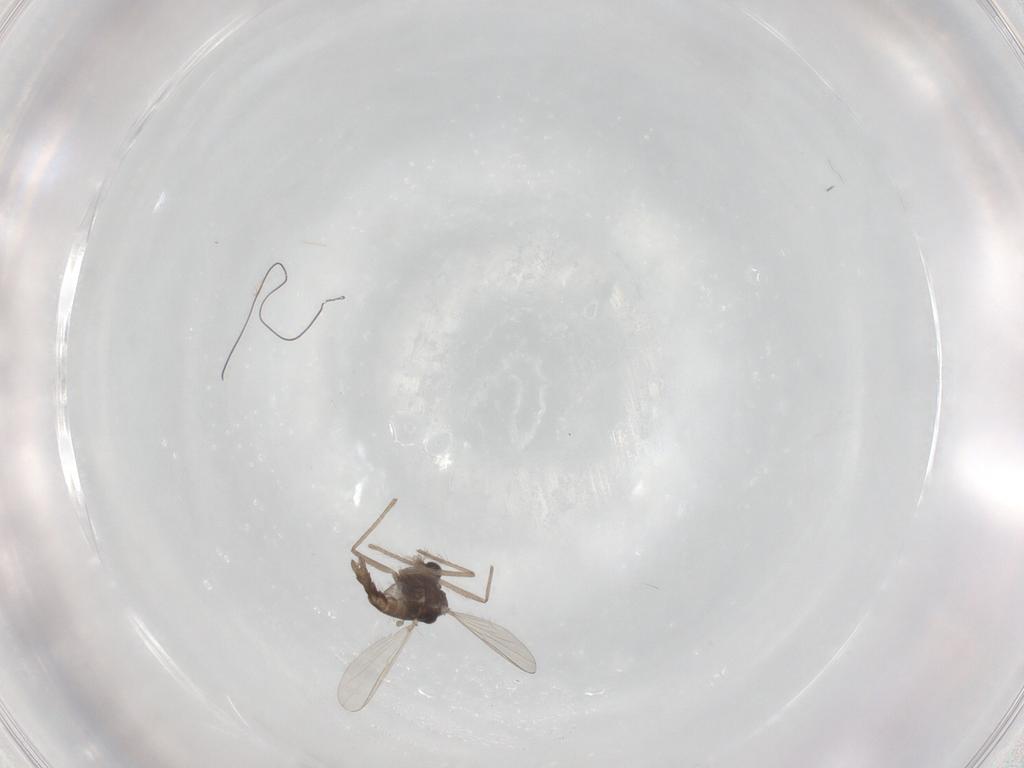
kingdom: Animalia
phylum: Arthropoda
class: Insecta
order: Diptera
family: Chironomidae
